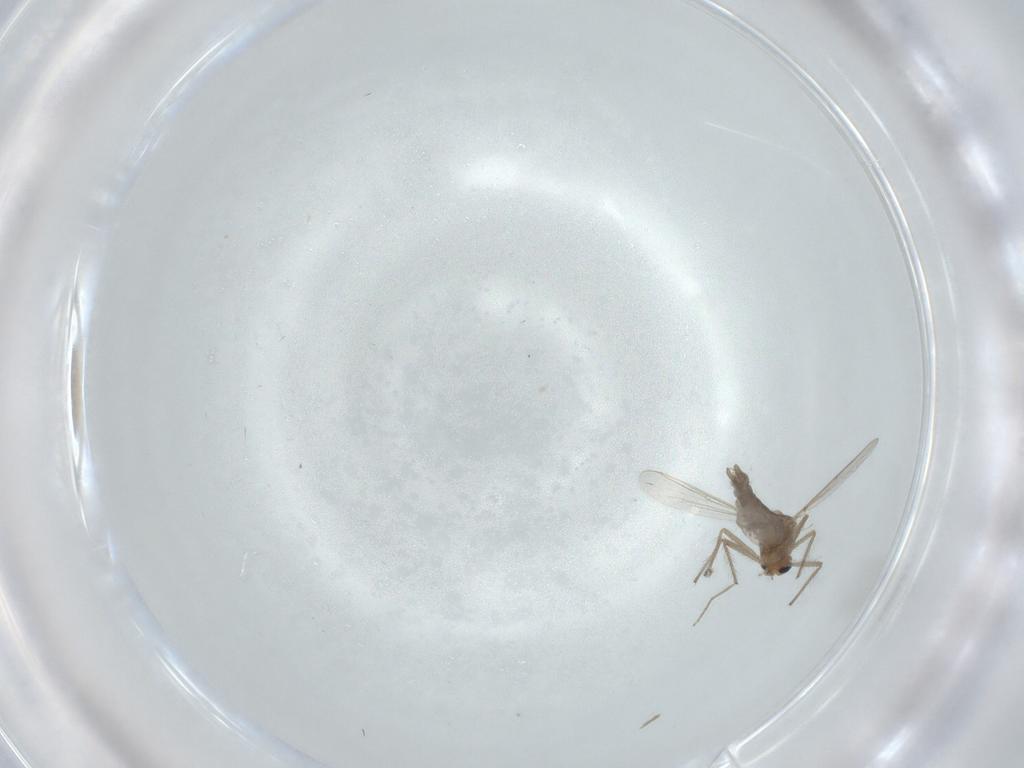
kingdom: Animalia
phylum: Arthropoda
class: Insecta
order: Diptera
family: Chironomidae
